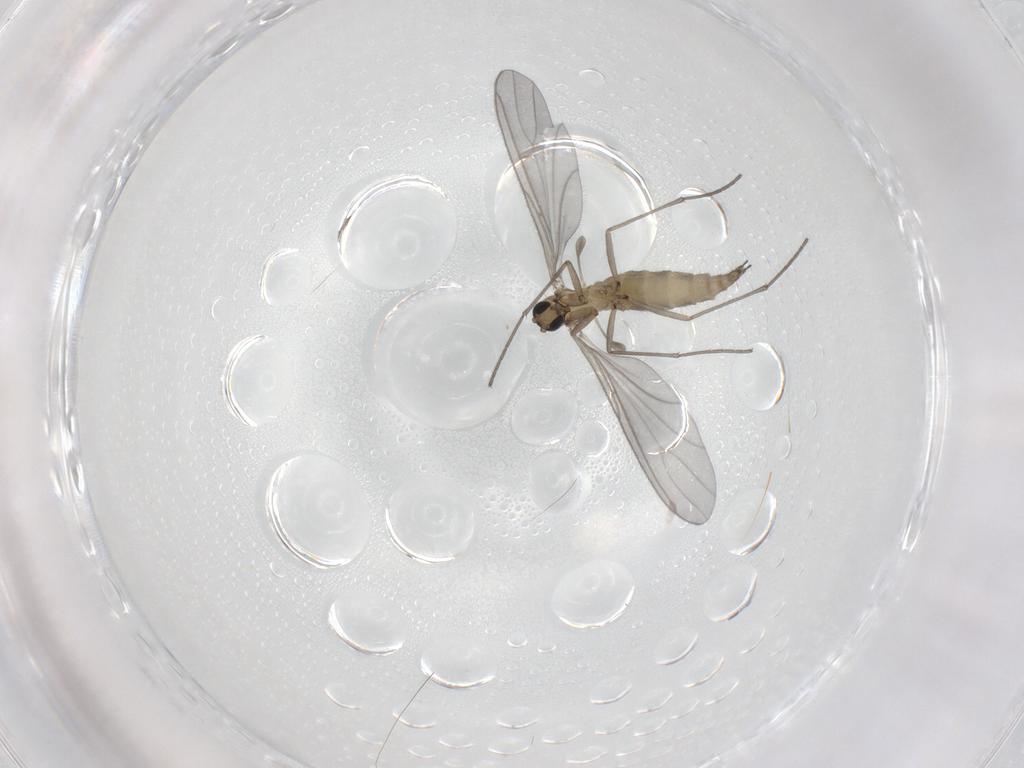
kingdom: Animalia
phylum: Arthropoda
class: Insecta
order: Diptera
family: Sciaridae
